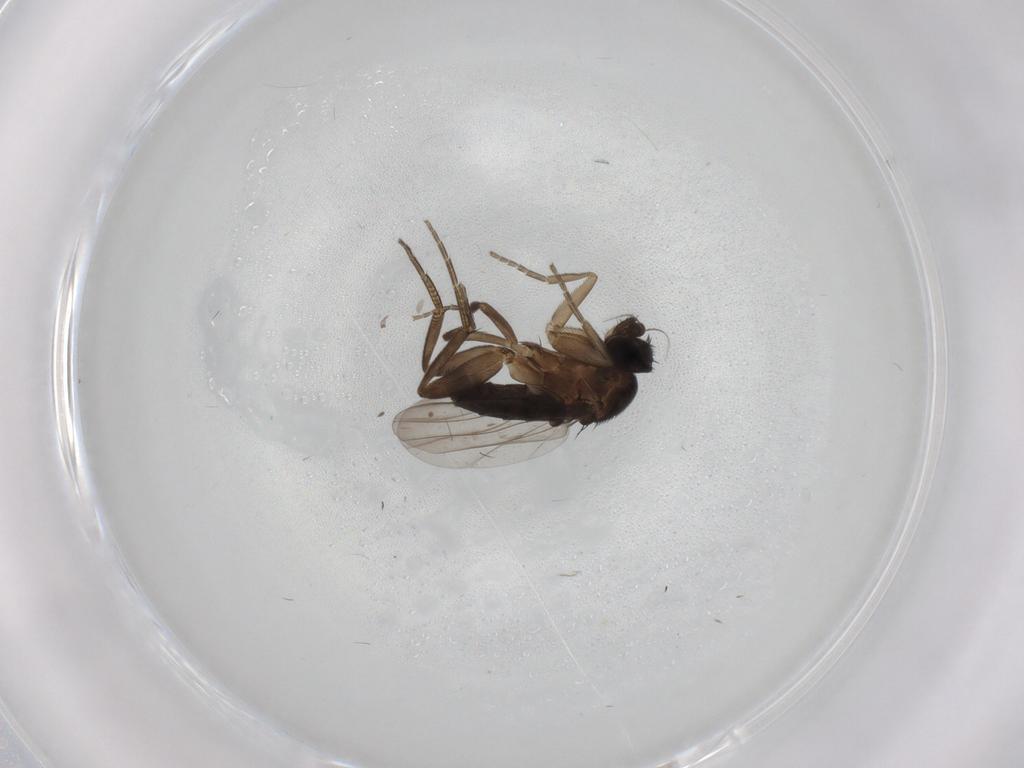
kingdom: Animalia
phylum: Arthropoda
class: Insecta
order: Diptera
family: Phoridae
